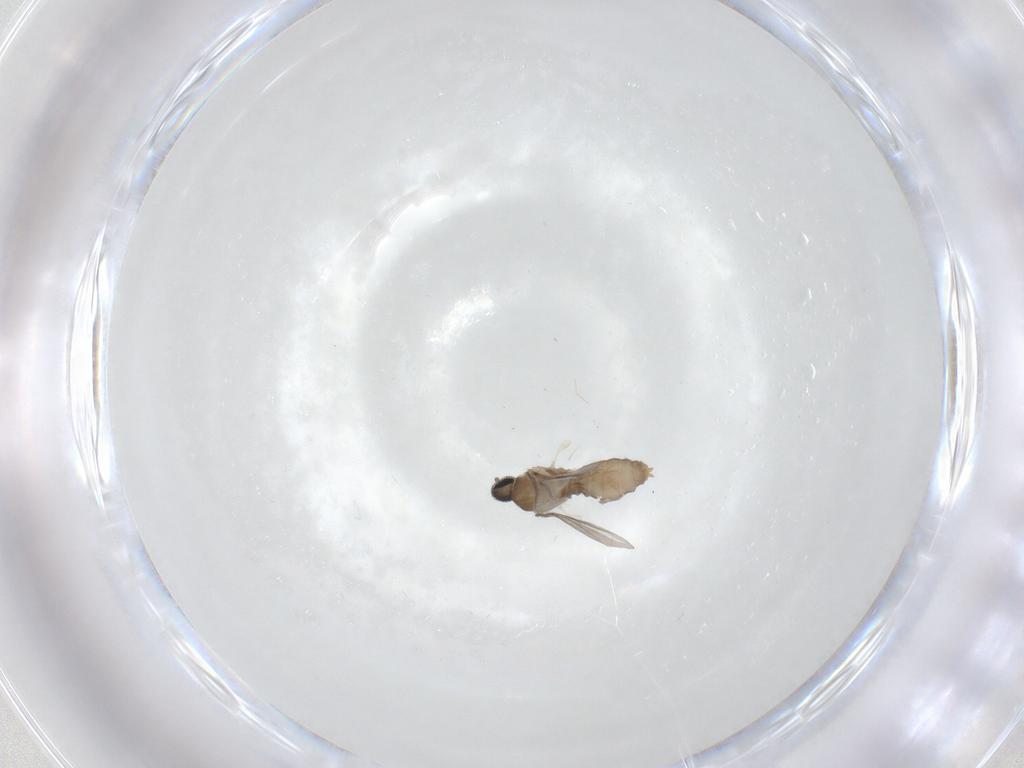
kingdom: Animalia
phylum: Arthropoda
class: Insecta
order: Diptera
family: Cecidomyiidae
